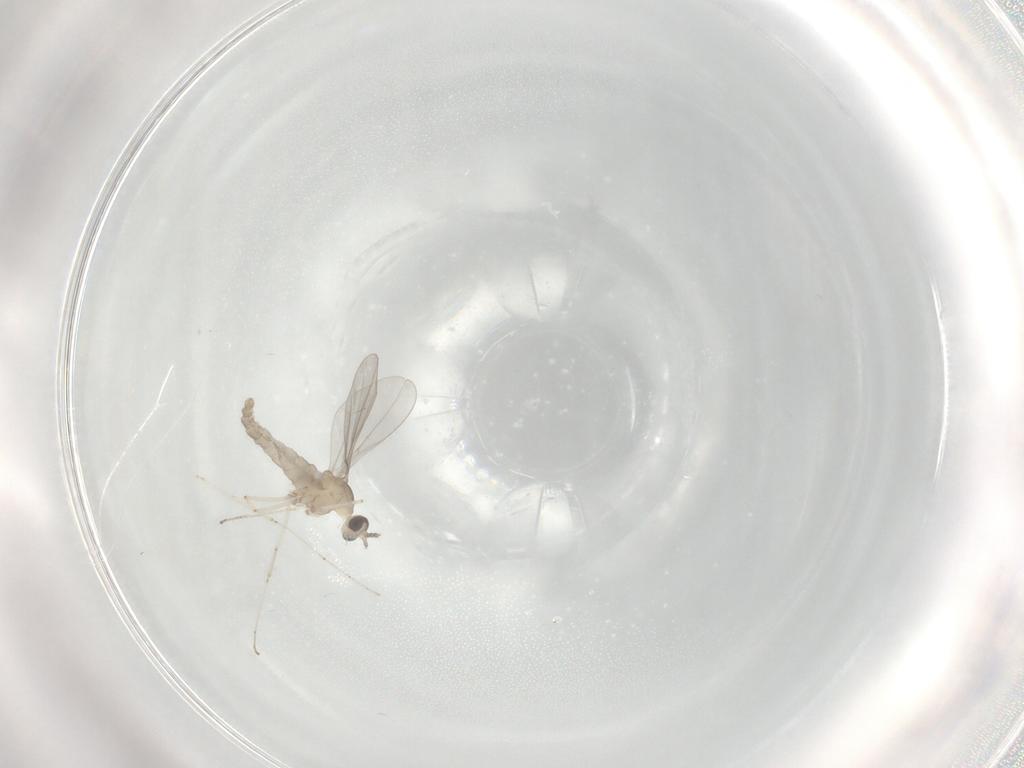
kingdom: Animalia
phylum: Arthropoda
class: Insecta
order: Diptera
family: Cecidomyiidae
